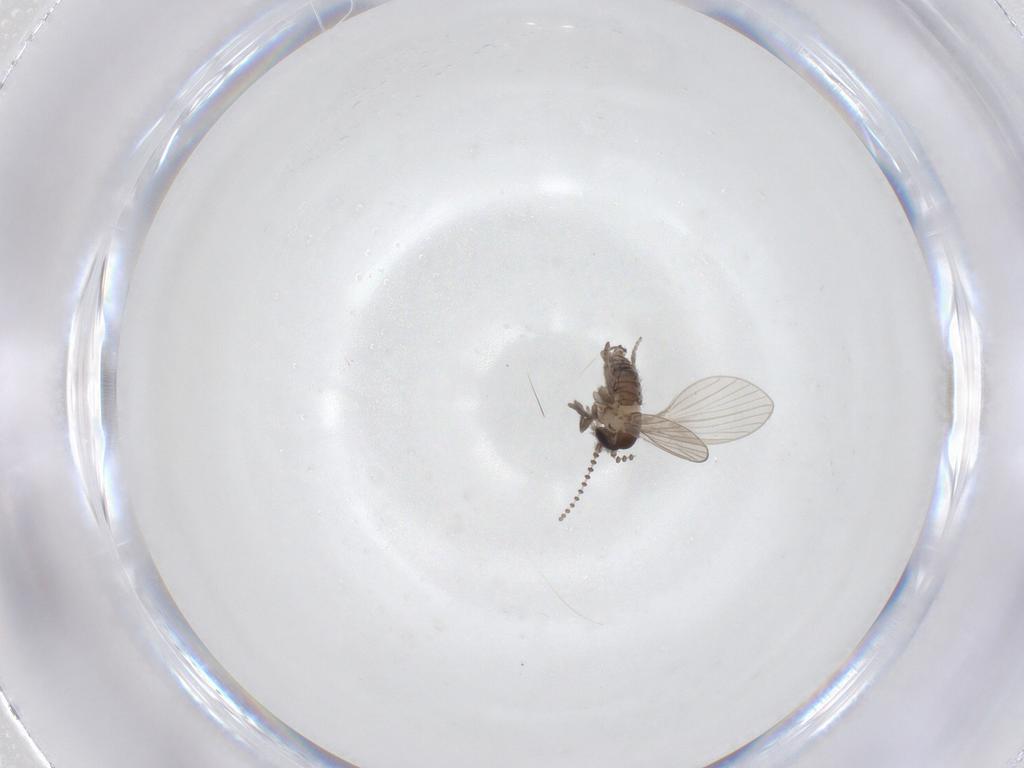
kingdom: Animalia
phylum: Arthropoda
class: Insecta
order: Diptera
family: Psychodidae
